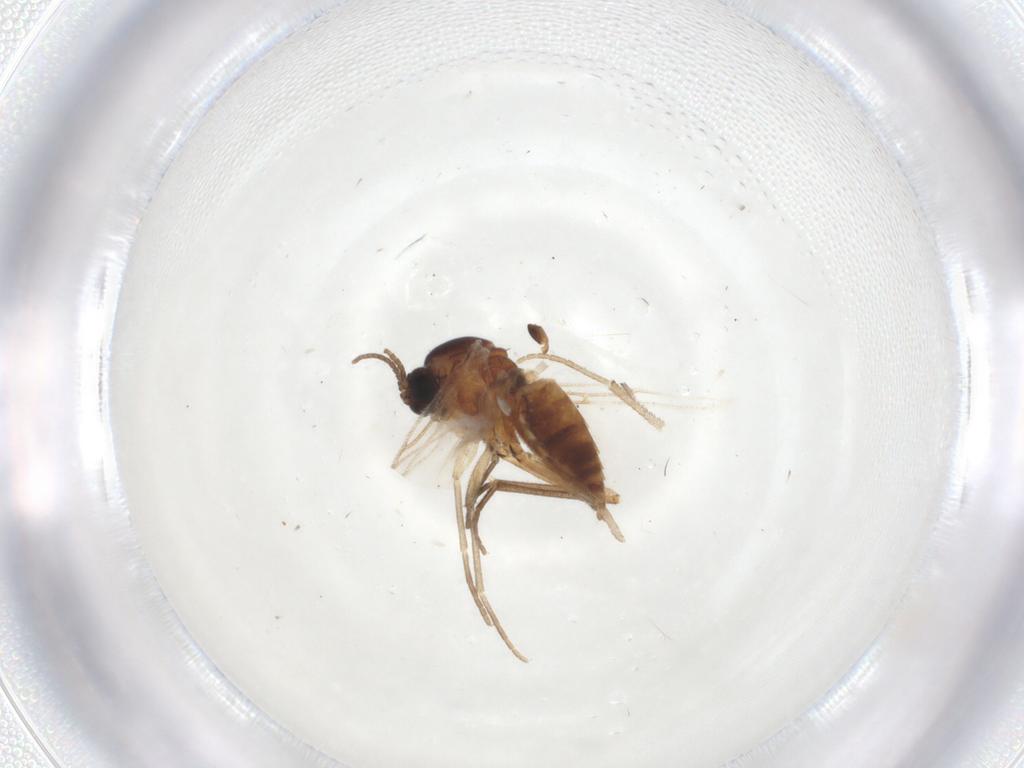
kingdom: Animalia
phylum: Arthropoda
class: Insecta
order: Diptera
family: Sciaridae
